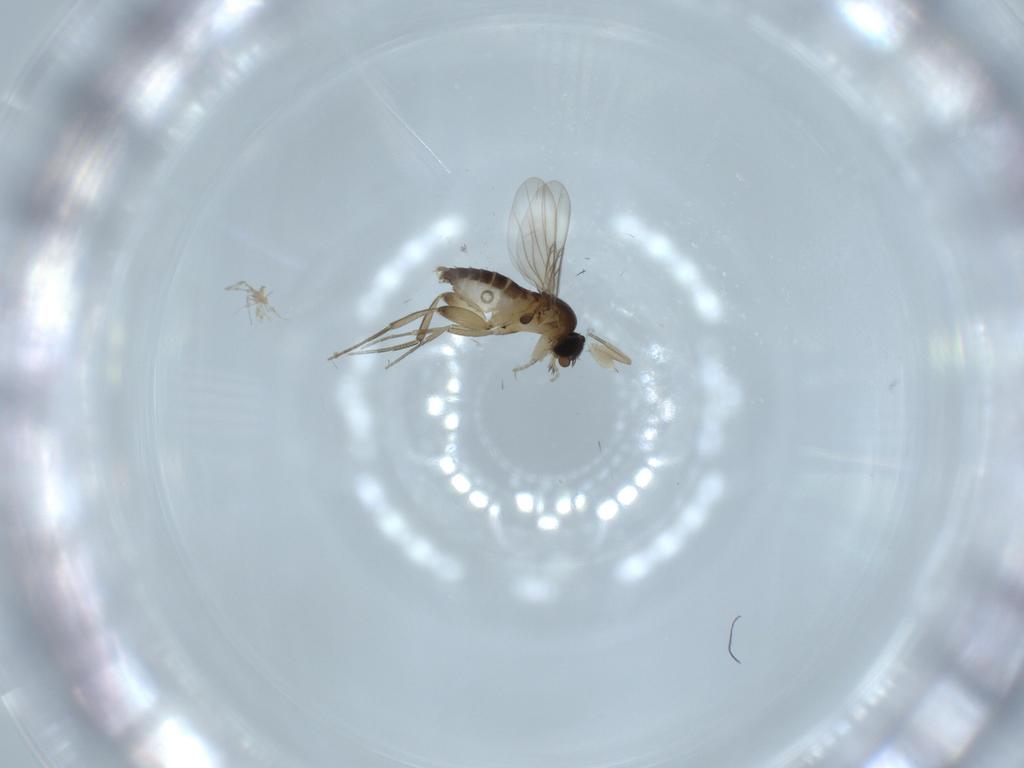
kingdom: Animalia
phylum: Arthropoda
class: Insecta
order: Diptera
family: Phoridae
